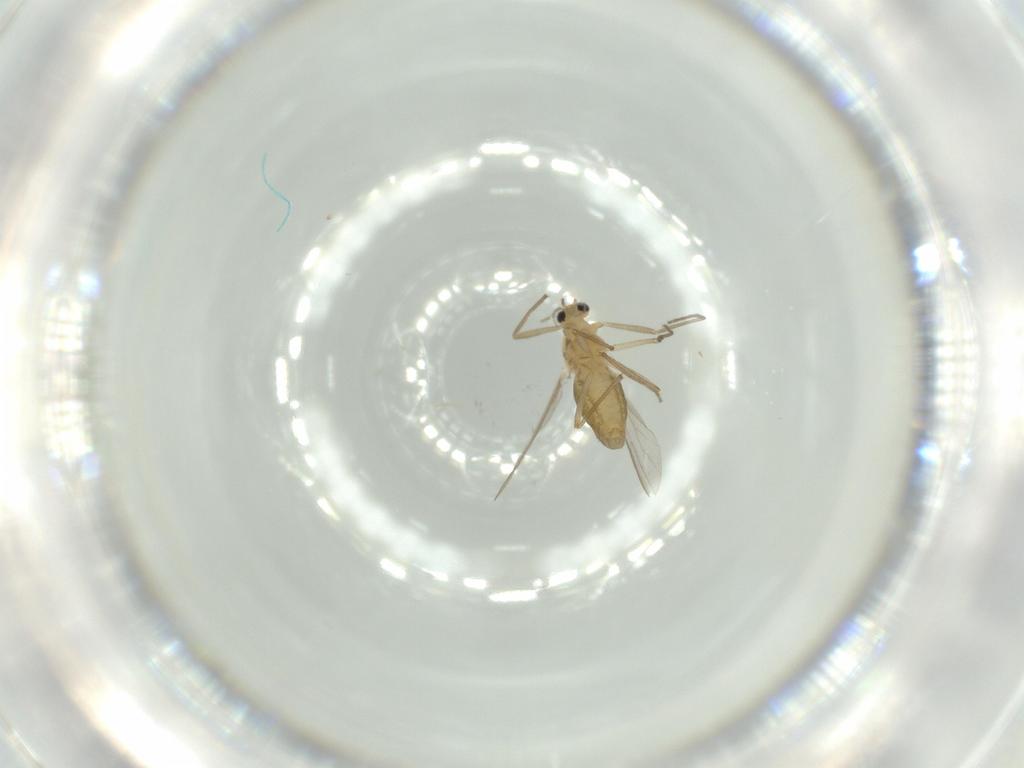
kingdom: Animalia
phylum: Arthropoda
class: Insecta
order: Diptera
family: Chironomidae
